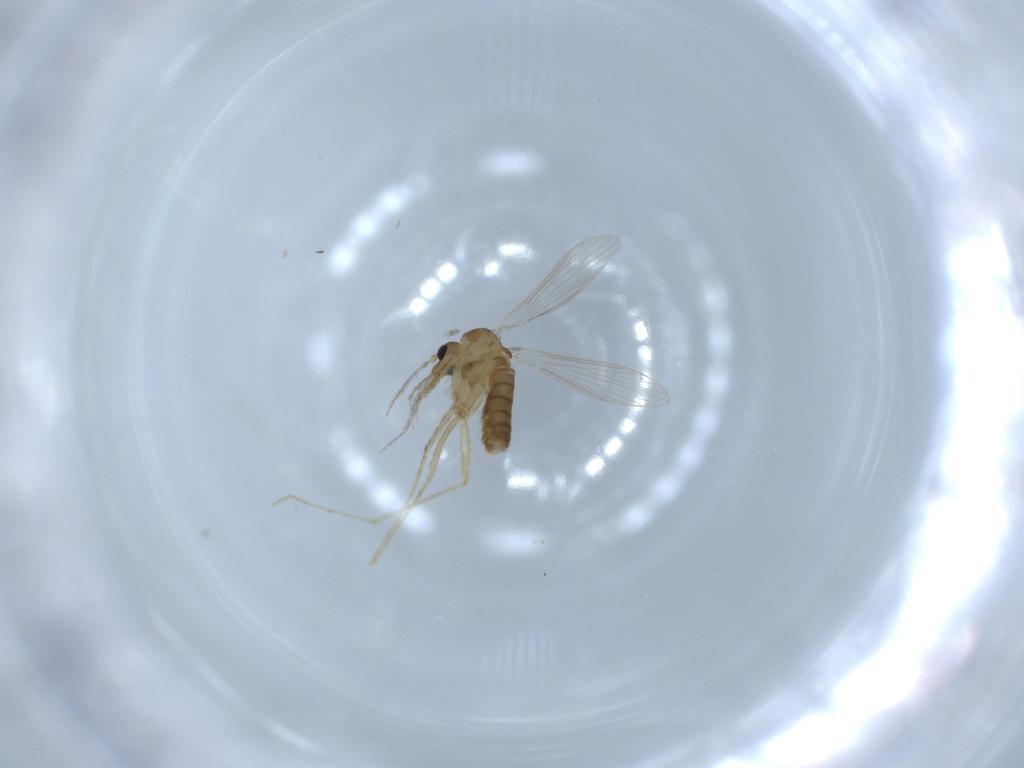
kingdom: Animalia
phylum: Arthropoda
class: Insecta
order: Diptera
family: Psychodidae
